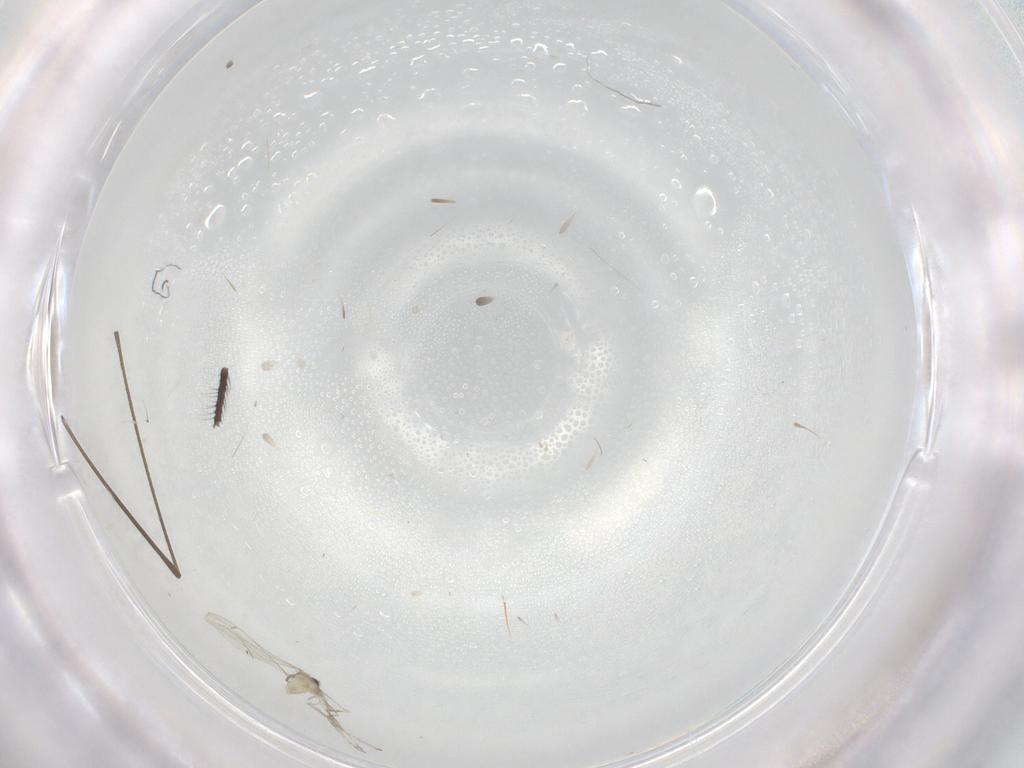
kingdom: Animalia
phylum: Arthropoda
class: Insecta
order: Diptera
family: Cecidomyiidae
